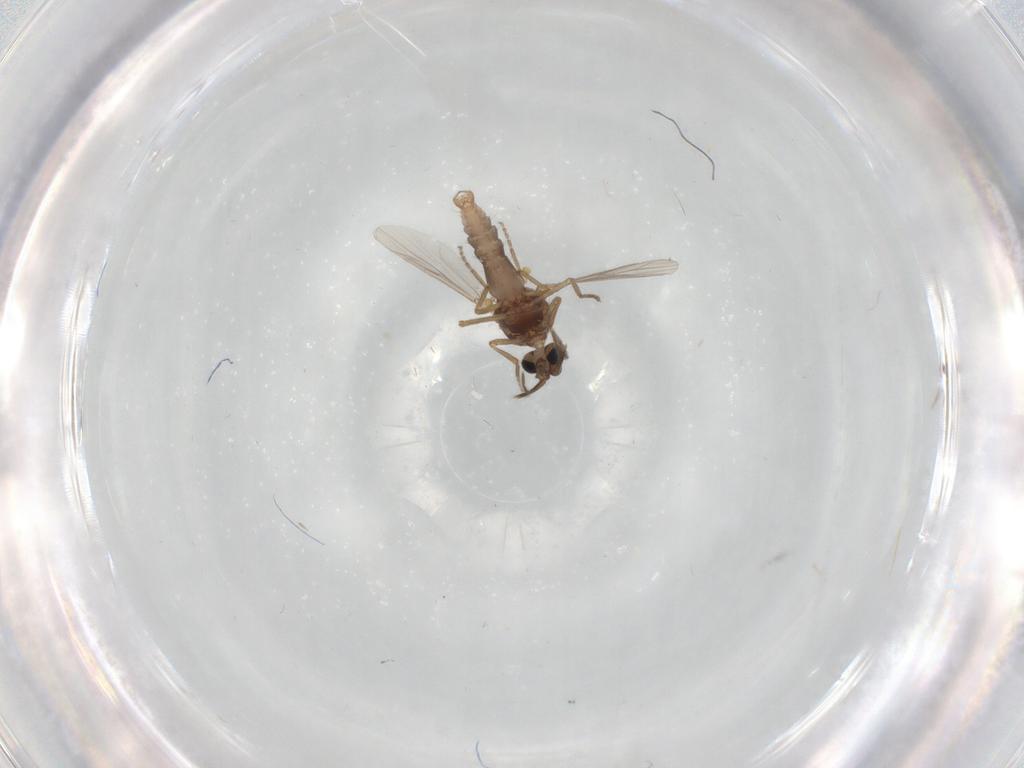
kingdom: Animalia
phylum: Arthropoda
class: Insecta
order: Diptera
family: Ceratopogonidae
